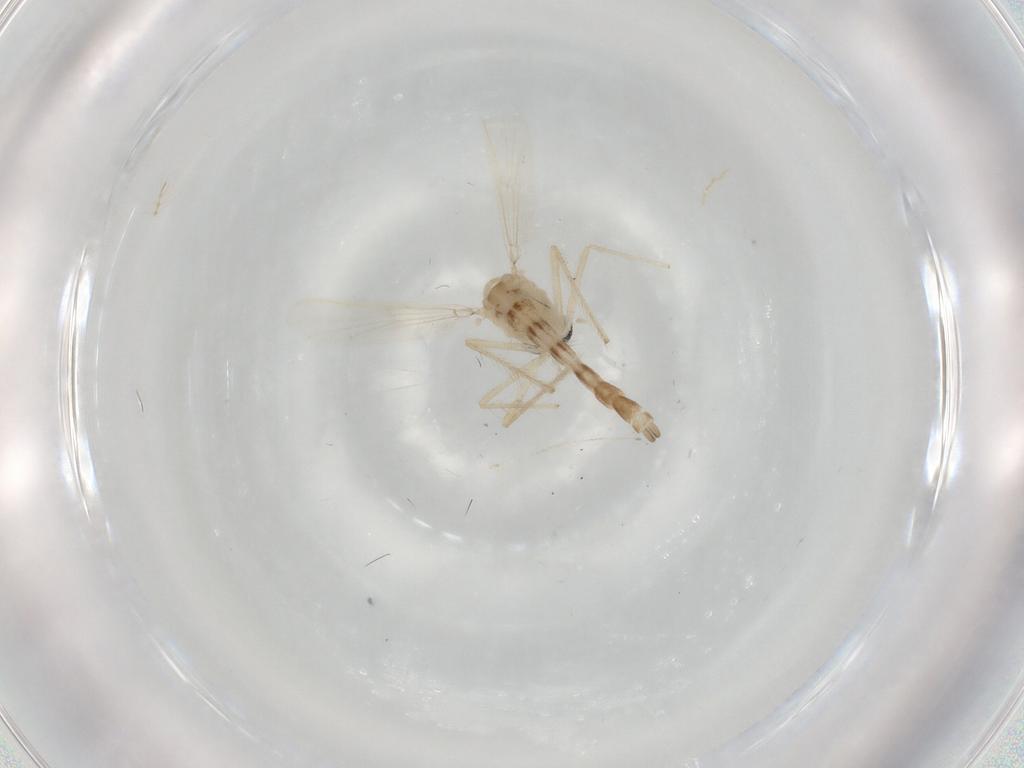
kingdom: Animalia
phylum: Arthropoda
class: Insecta
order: Diptera
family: Chironomidae
